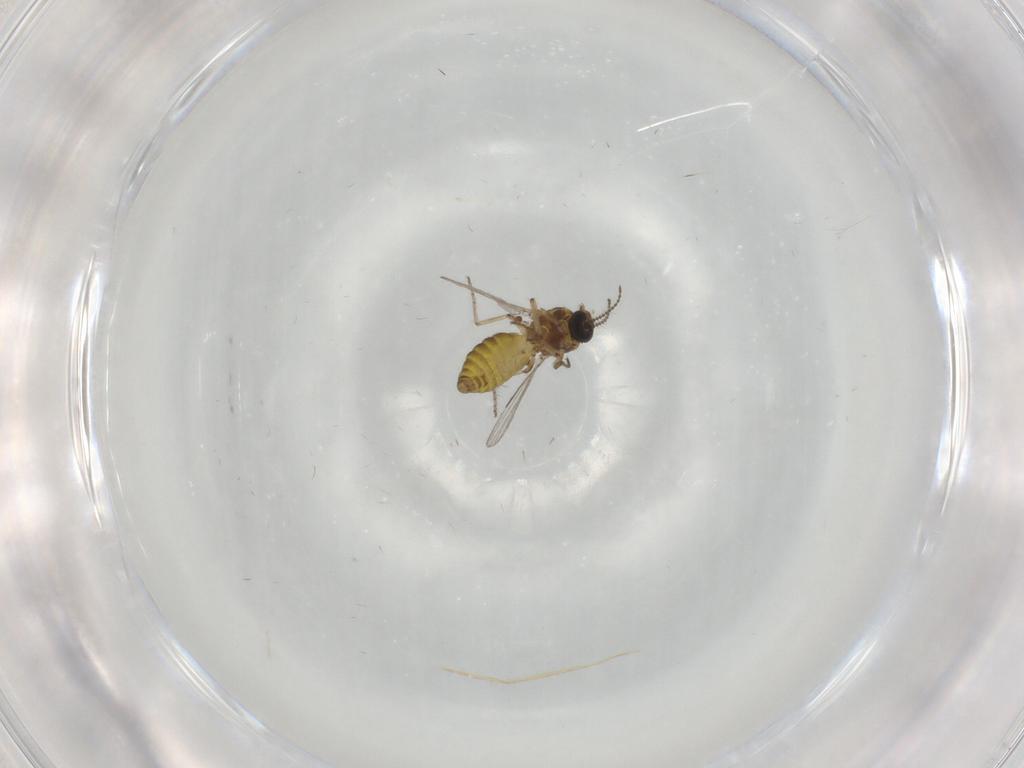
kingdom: Animalia
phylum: Arthropoda
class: Insecta
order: Diptera
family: Ceratopogonidae
